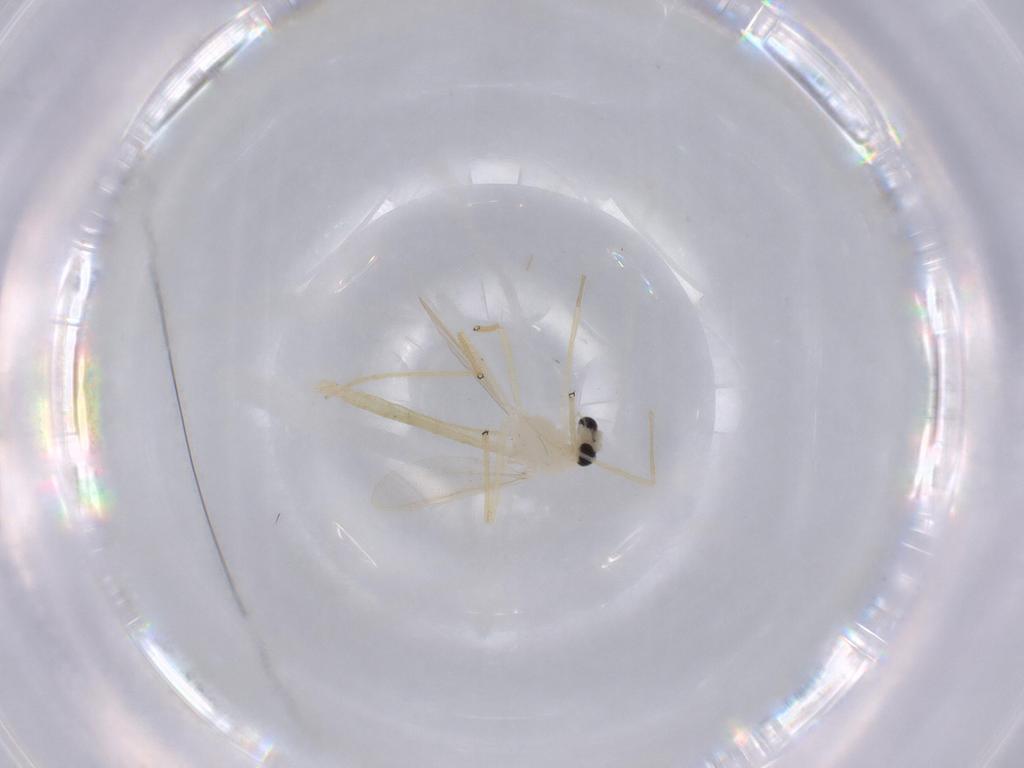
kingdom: Animalia
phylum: Arthropoda
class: Insecta
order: Diptera
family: Chironomidae
